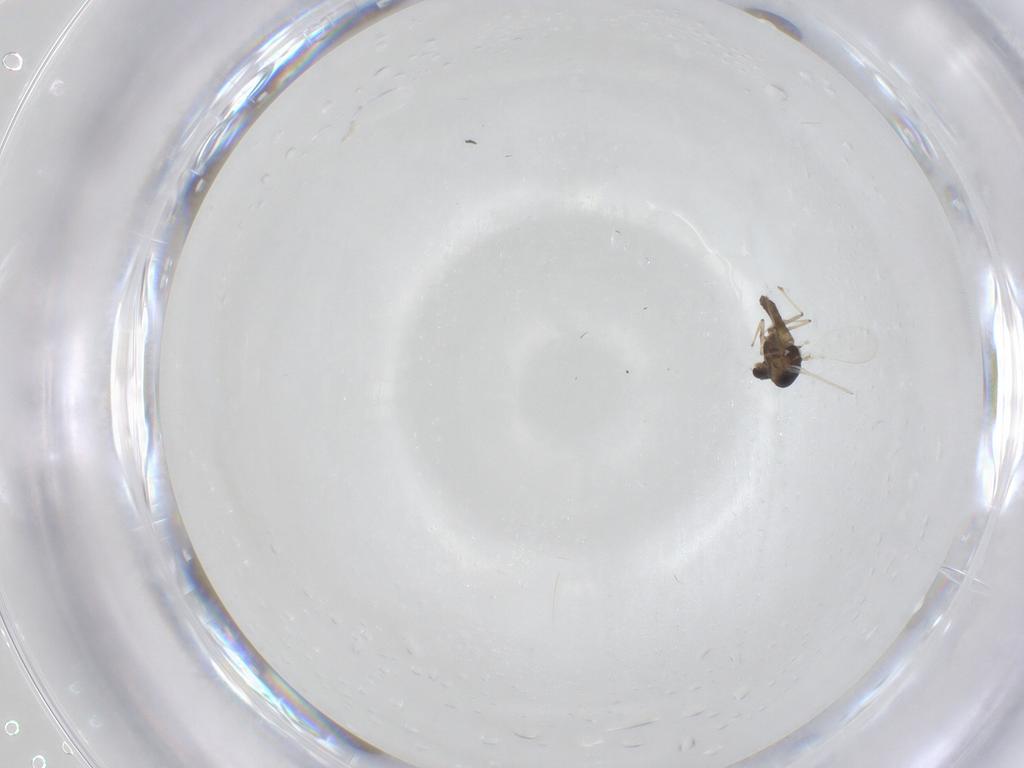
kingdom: Animalia
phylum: Arthropoda
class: Insecta
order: Diptera
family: Chironomidae
